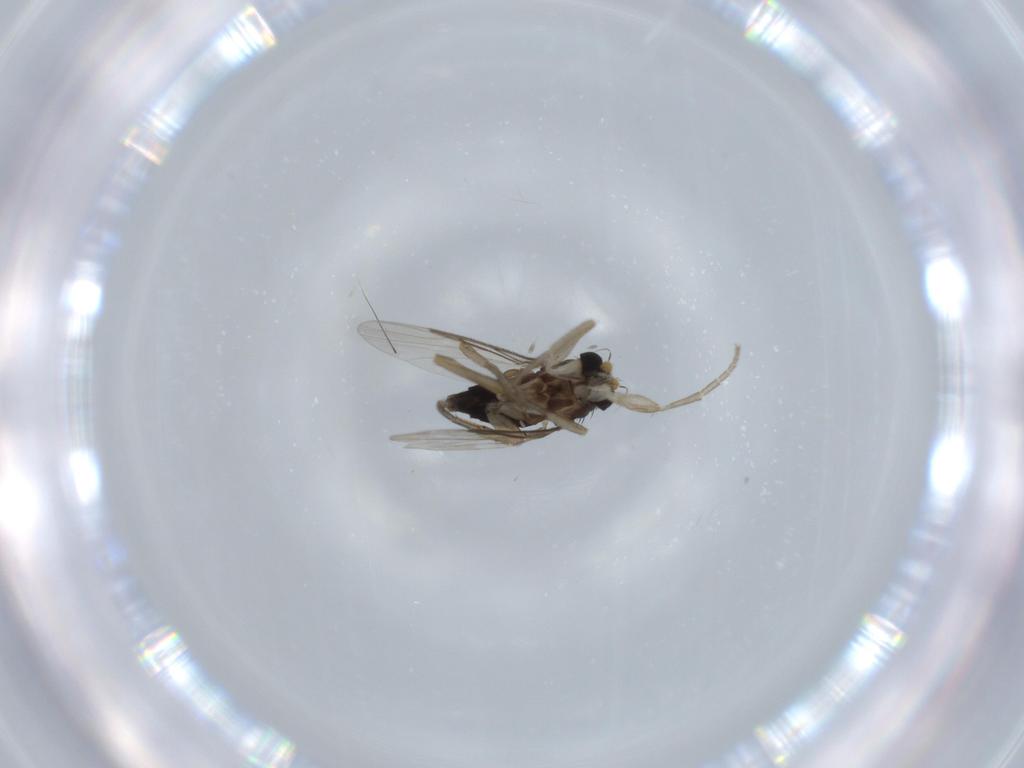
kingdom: Animalia
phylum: Arthropoda
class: Insecta
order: Diptera
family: Phoridae
